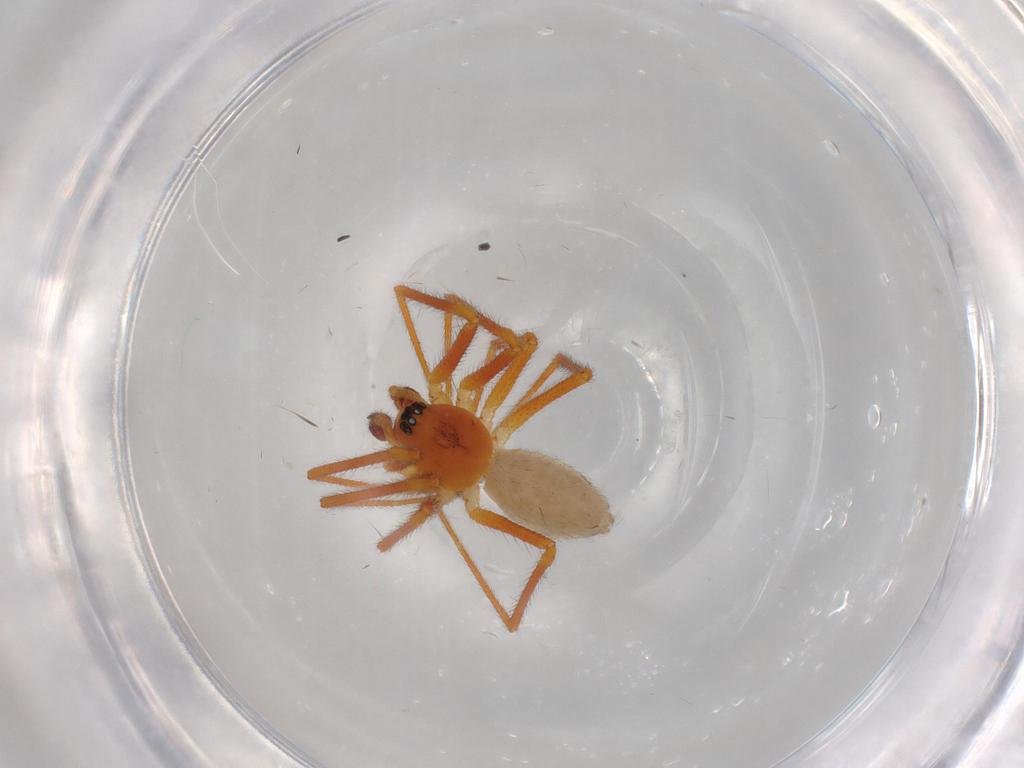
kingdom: Animalia
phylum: Arthropoda
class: Arachnida
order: Araneae
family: Linyphiidae
